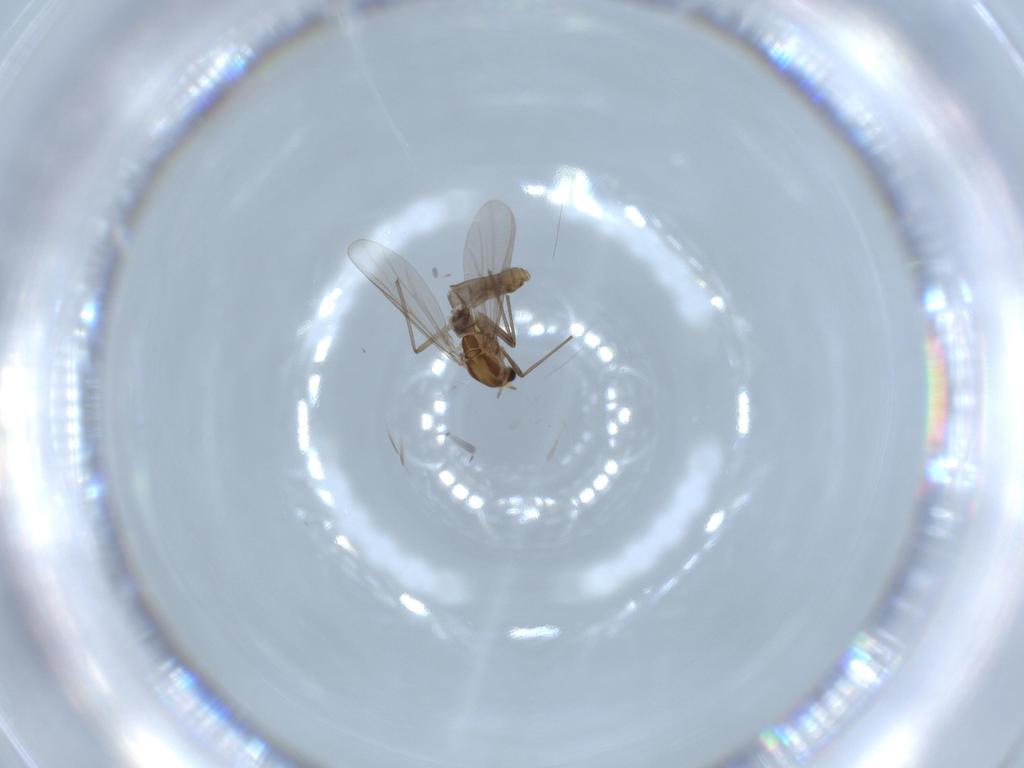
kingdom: Animalia
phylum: Arthropoda
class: Insecta
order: Diptera
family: Chironomidae
